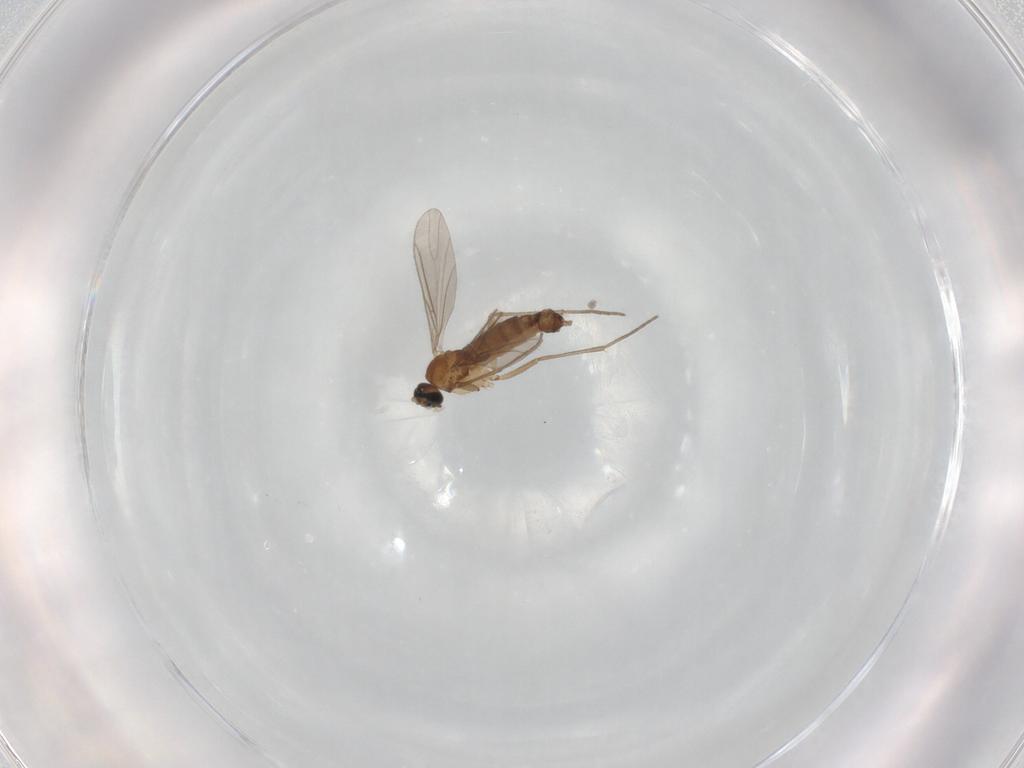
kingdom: Animalia
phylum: Arthropoda
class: Insecta
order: Diptera
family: Sciaridae
